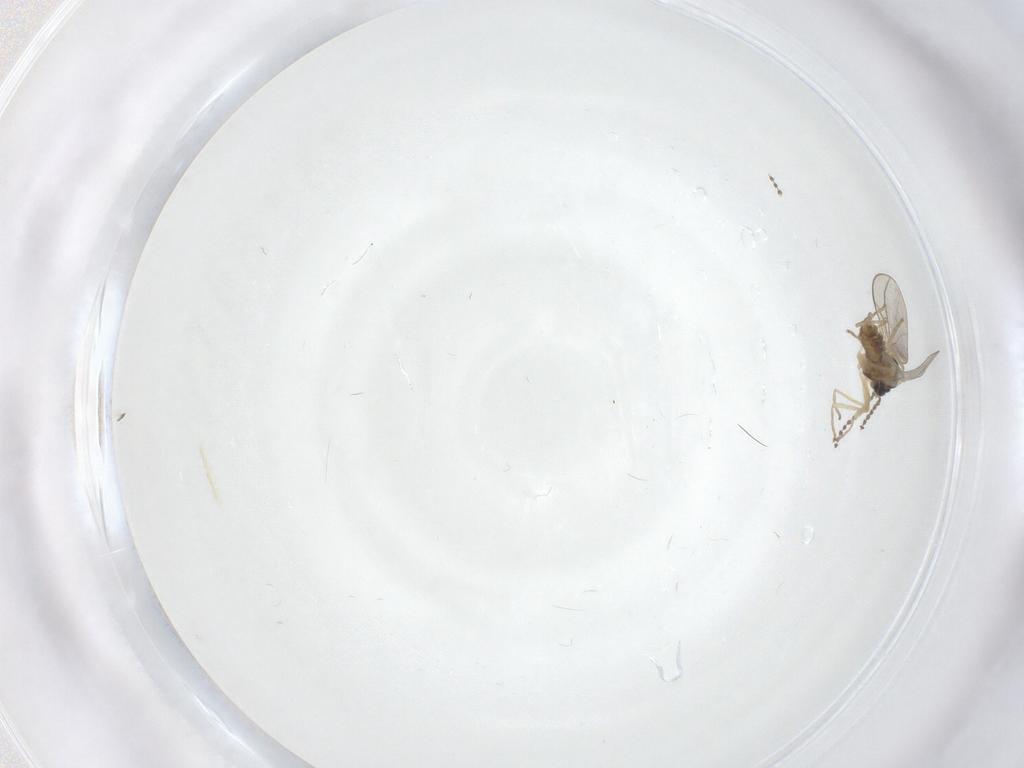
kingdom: Animalia
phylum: Arthropoda
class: Insecta
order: Diptera
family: Cecidomyiidae
